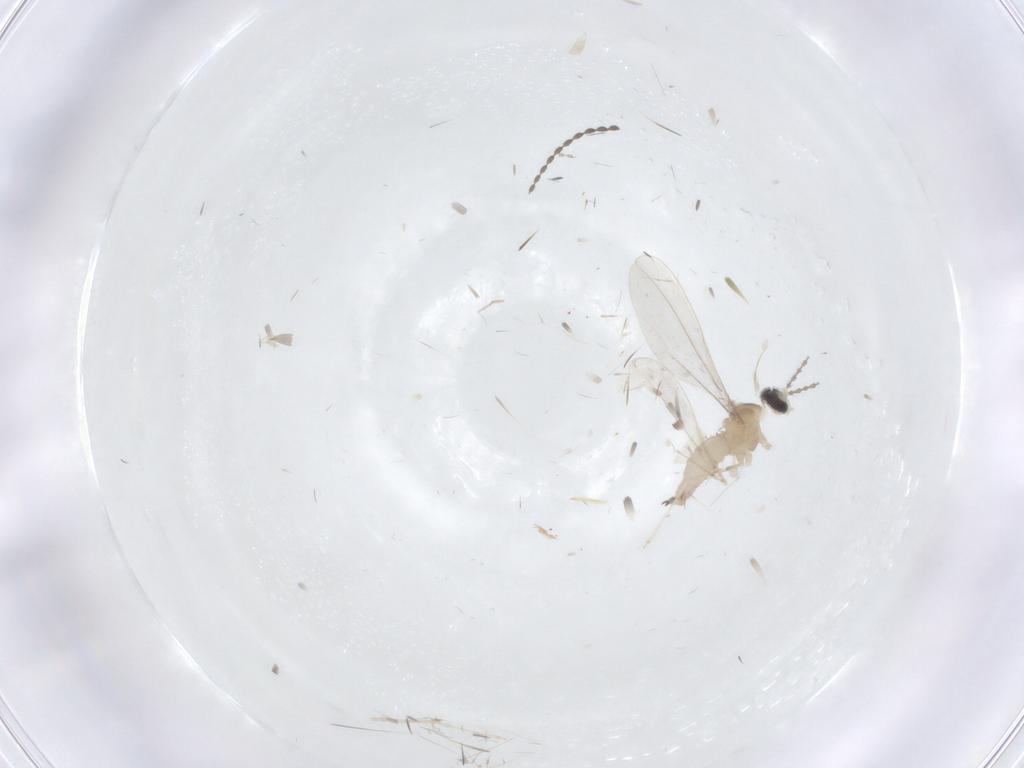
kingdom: Animalia
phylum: Arthropoda
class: Insecta
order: Diptera
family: Cecidomyiidae
